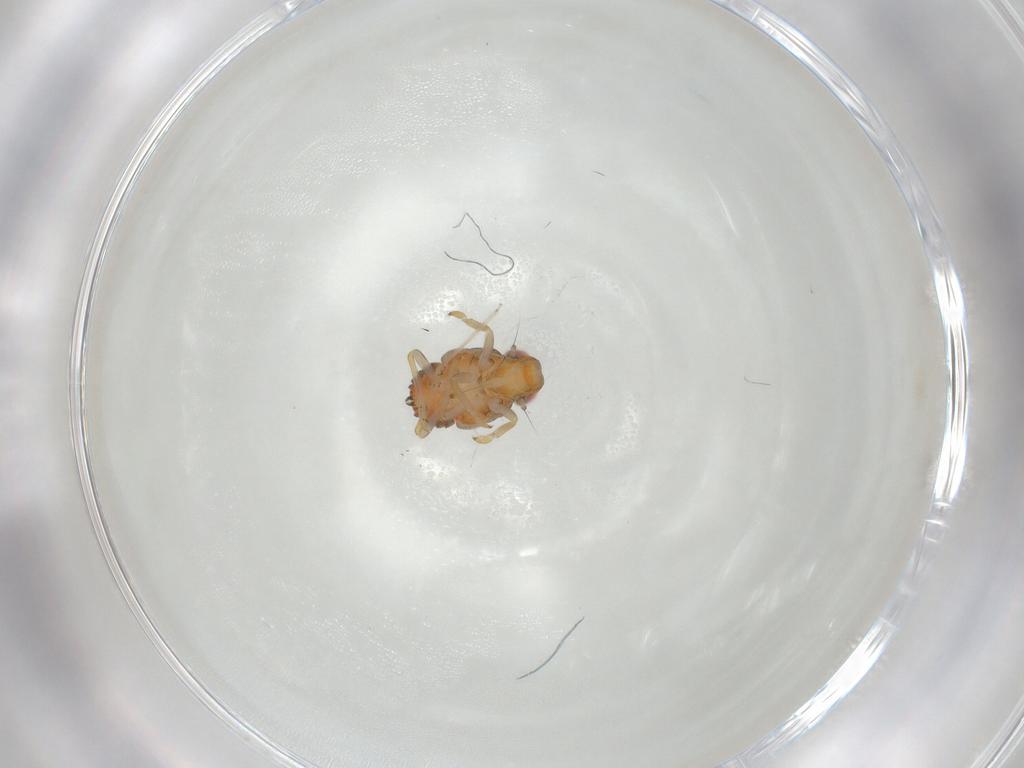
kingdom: Animalia
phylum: Arthropoda
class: Insecta
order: Hemiptera
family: Issidae
